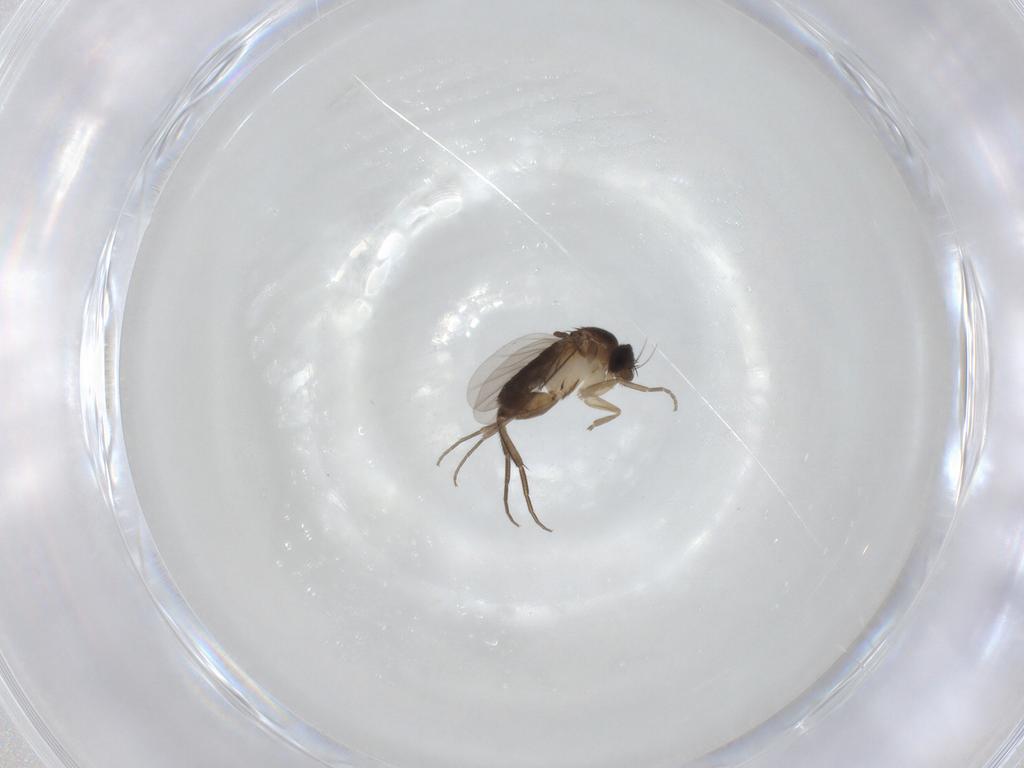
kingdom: Animalia
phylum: Arthropoda
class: Insecta
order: Diptera
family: Phoridae
